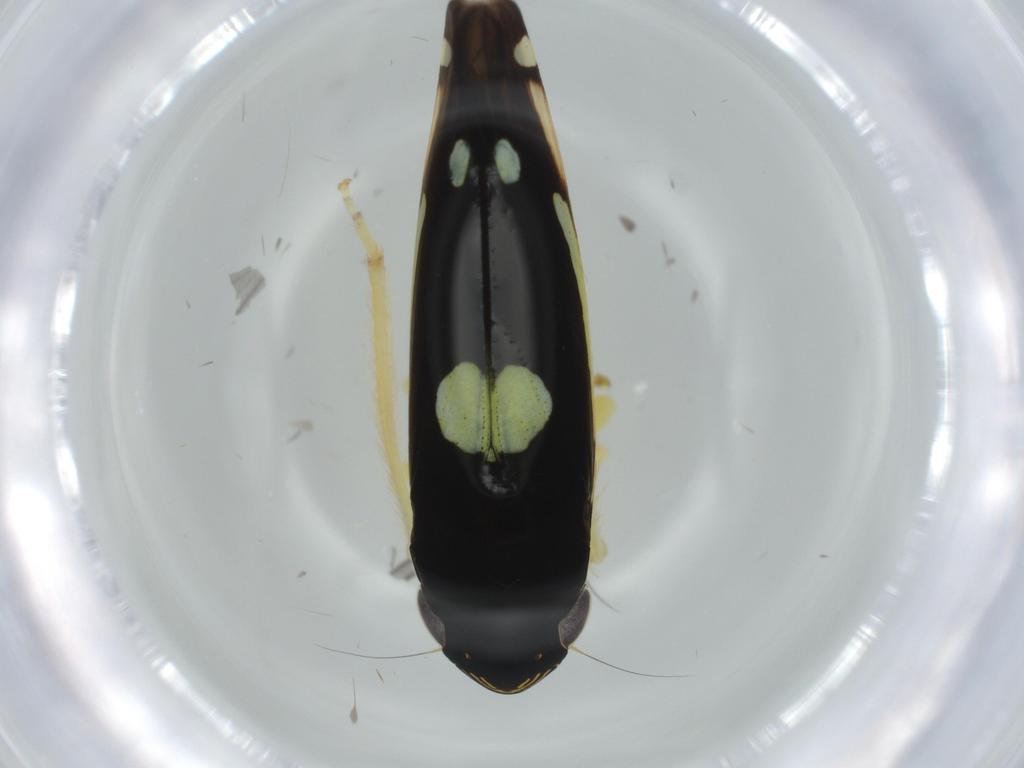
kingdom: Animalia
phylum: Arthropoda
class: Insecta
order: Hemiptera
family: Cicadellidae
